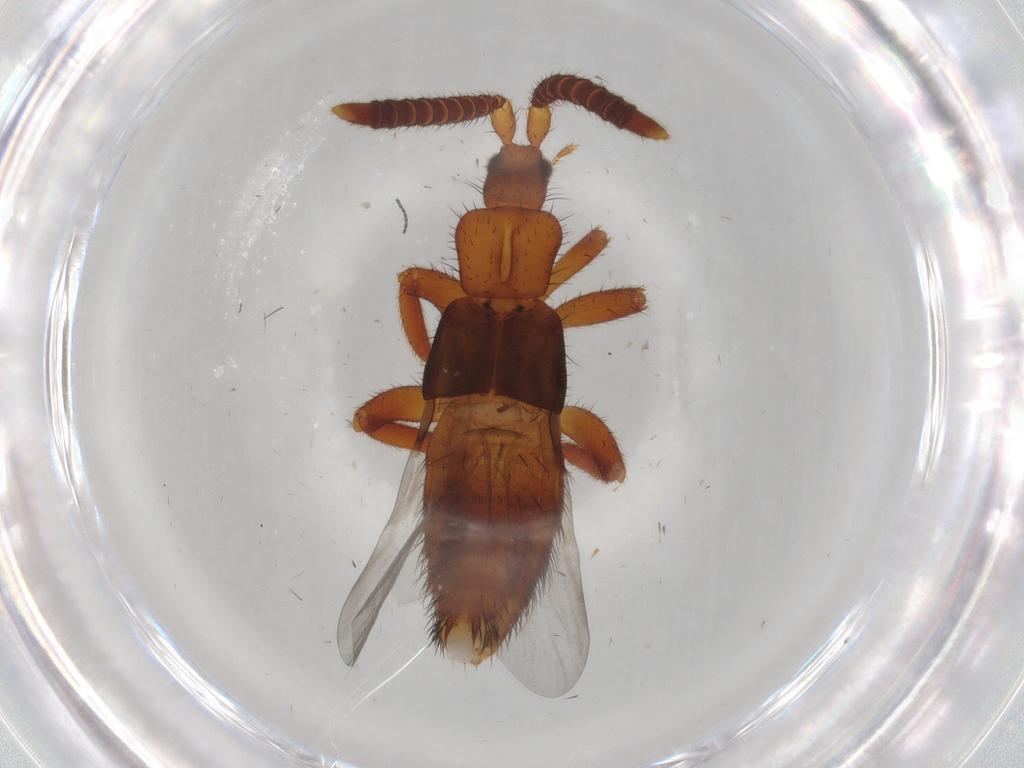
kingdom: Animalia
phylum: Arthropoda
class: Insecta
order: Coleoptera
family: Staphylinidae
